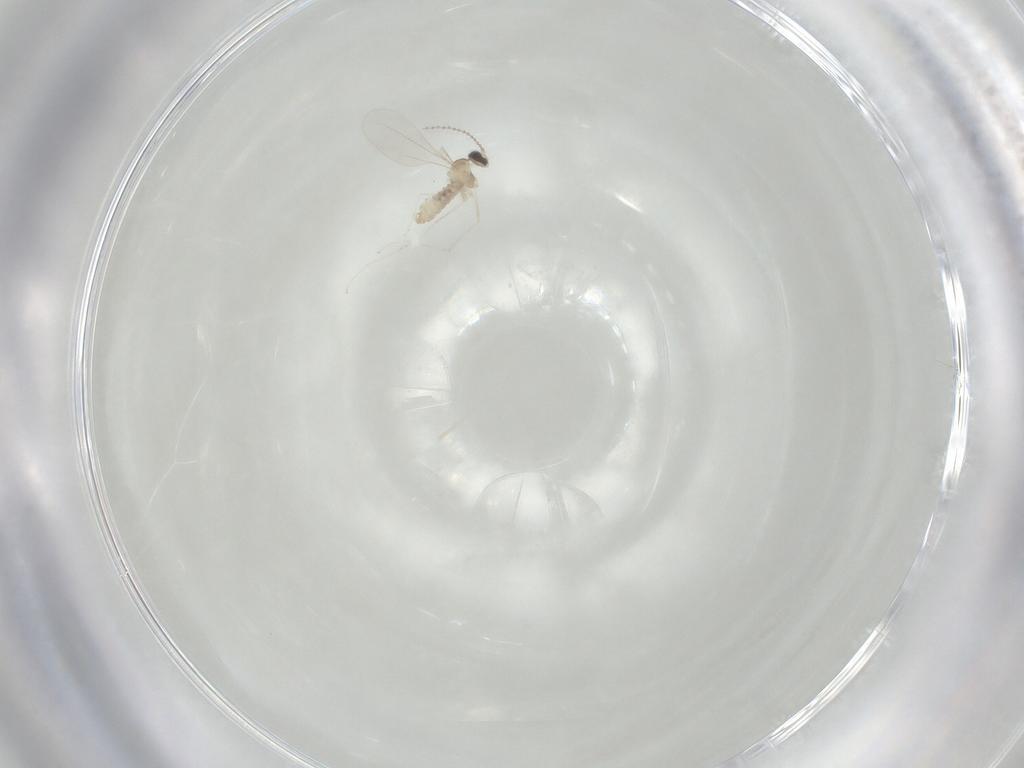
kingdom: Animalia
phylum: Arthropoda
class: Insecta
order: Diptera
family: Cecidomyiidae
